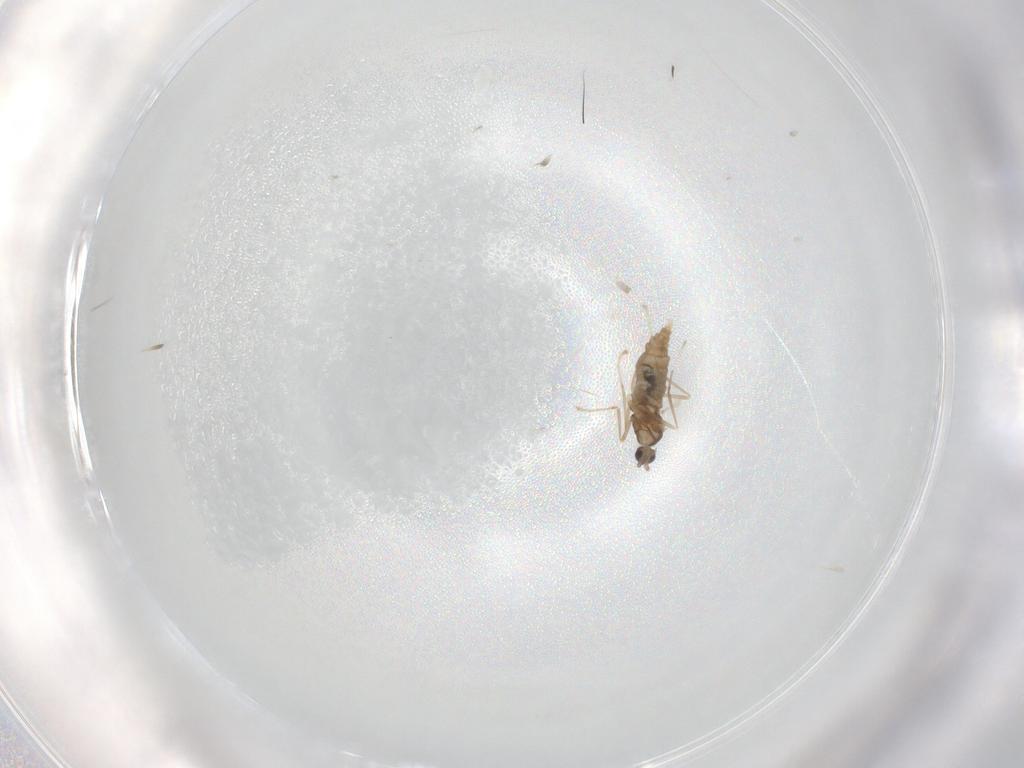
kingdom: Animalia
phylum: Arthropoda
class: Insecta
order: Diptera
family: Cecidomyiidae
